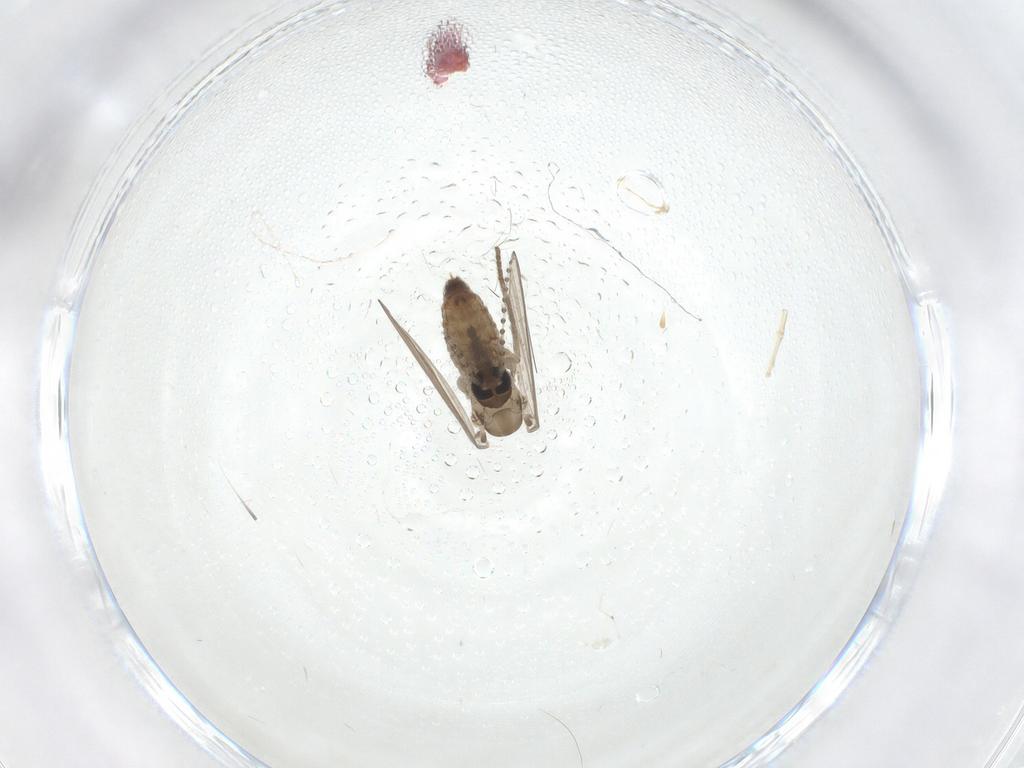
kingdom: Animalia
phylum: Arthropoda
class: Insecta
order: Diptera
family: Psychodidae
